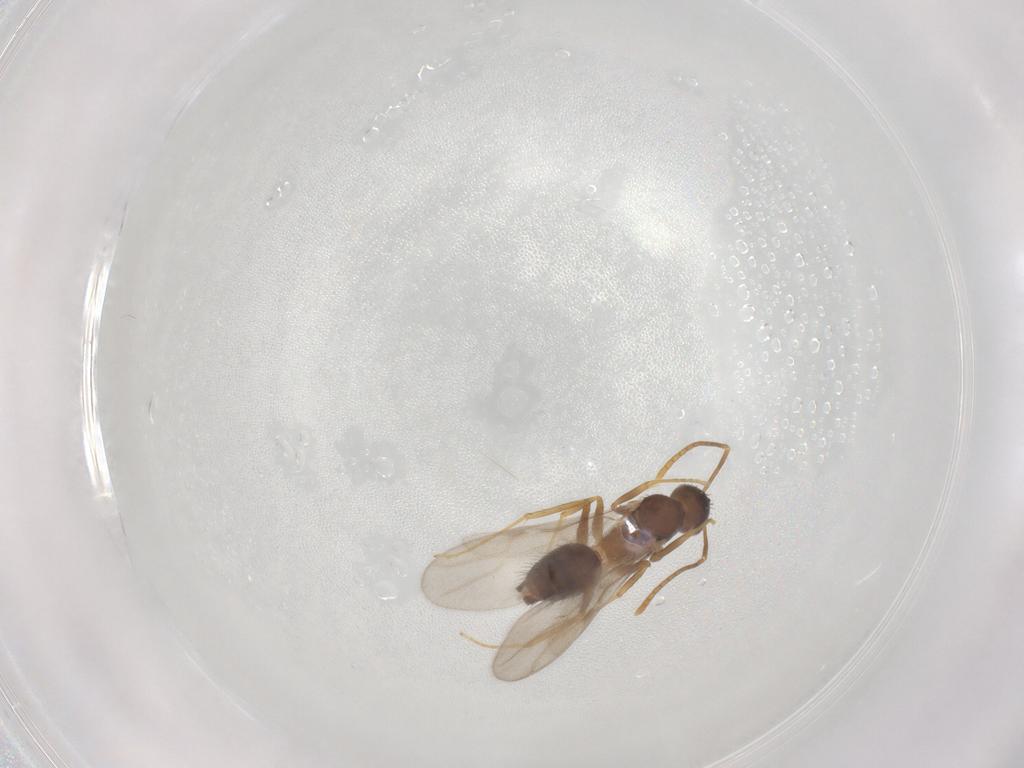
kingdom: Animalia
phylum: Arthropoda
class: Insecta
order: Hymenoptera
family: Formicidae
